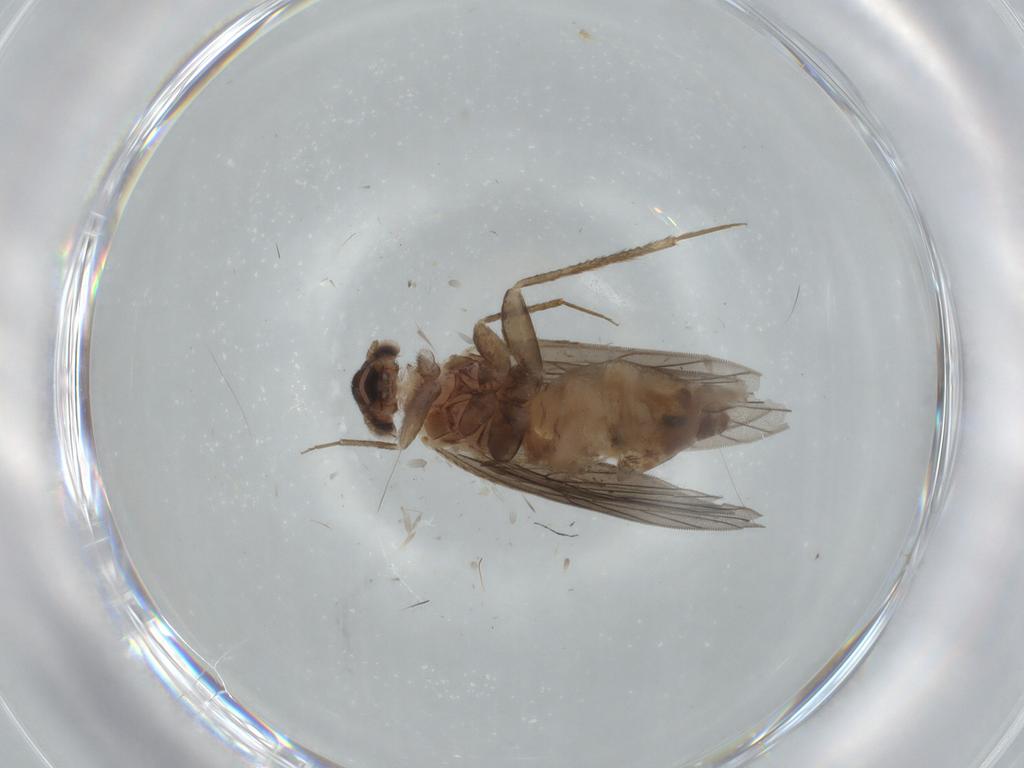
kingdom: Animalia
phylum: Arthropoda
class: Insecta
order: Psocodea
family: Lepidopsocidae
